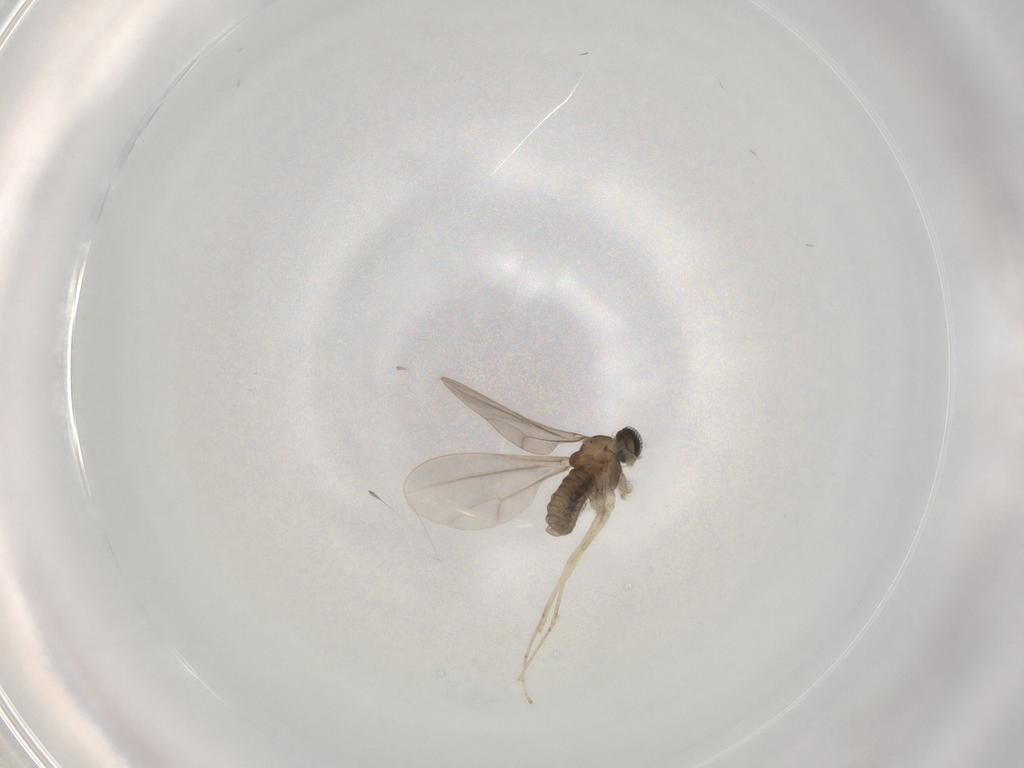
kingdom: Animalia
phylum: Arthropoda
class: Insecta
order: Diptera
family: Cecidomyiidae
